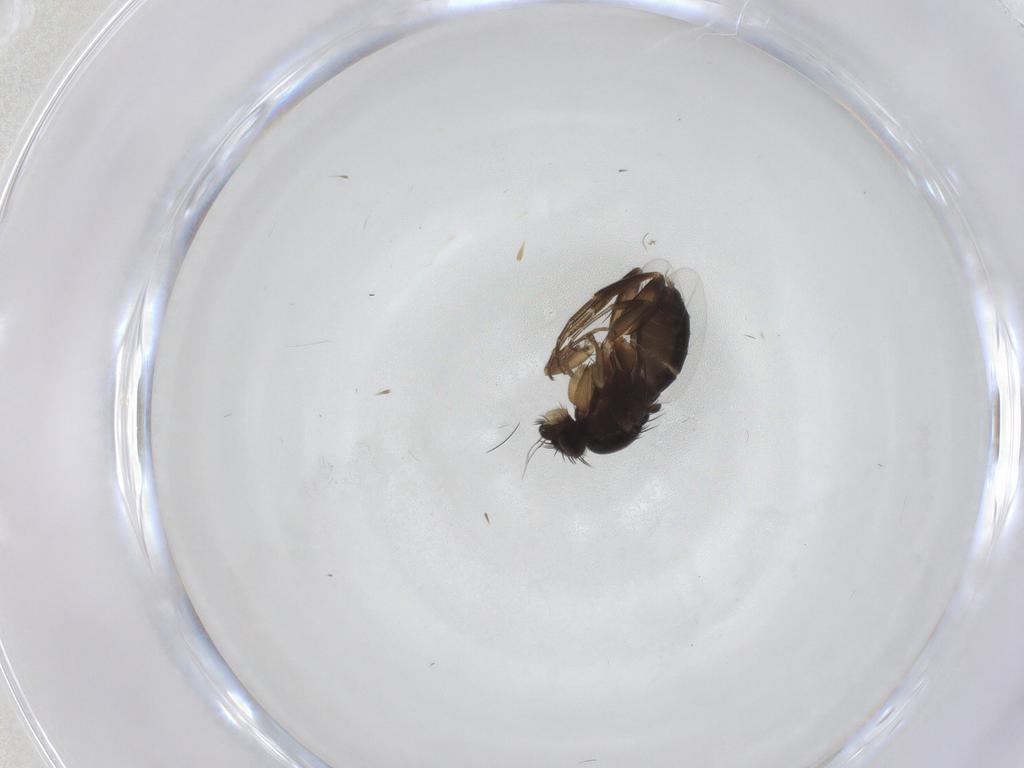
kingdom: Animalia
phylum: Arthropoda
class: Insecta
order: Diptera
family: Phoridae
